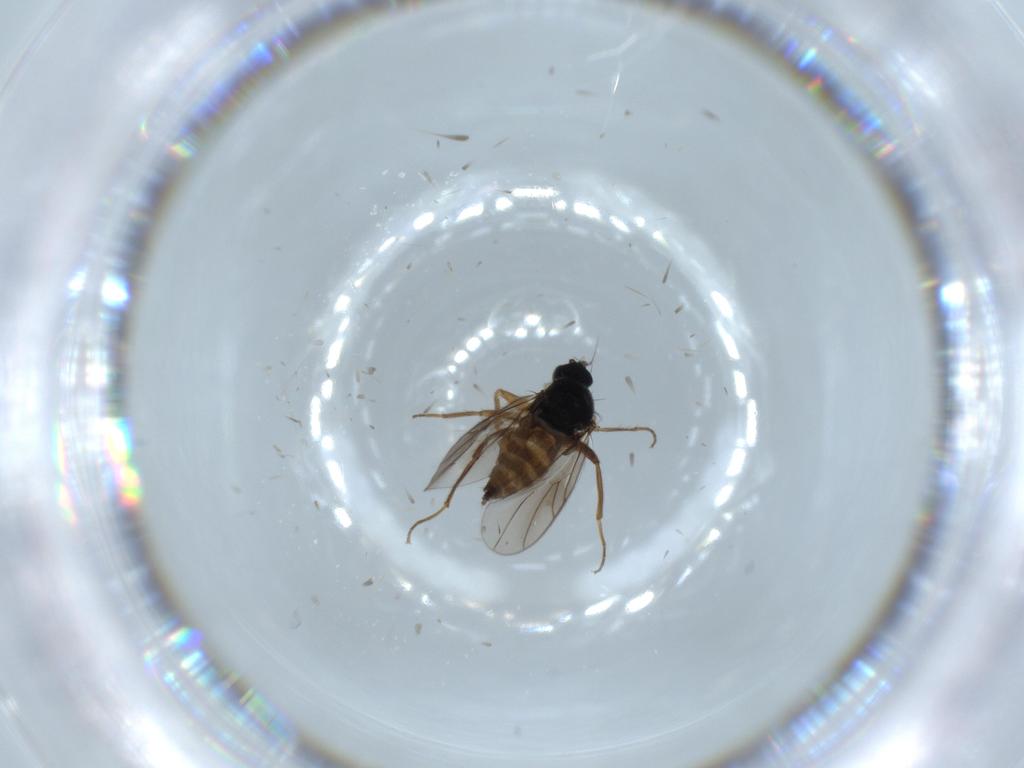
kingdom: Animalia
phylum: Arthropoda
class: Insecta
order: Diptera
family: Hybotidae
